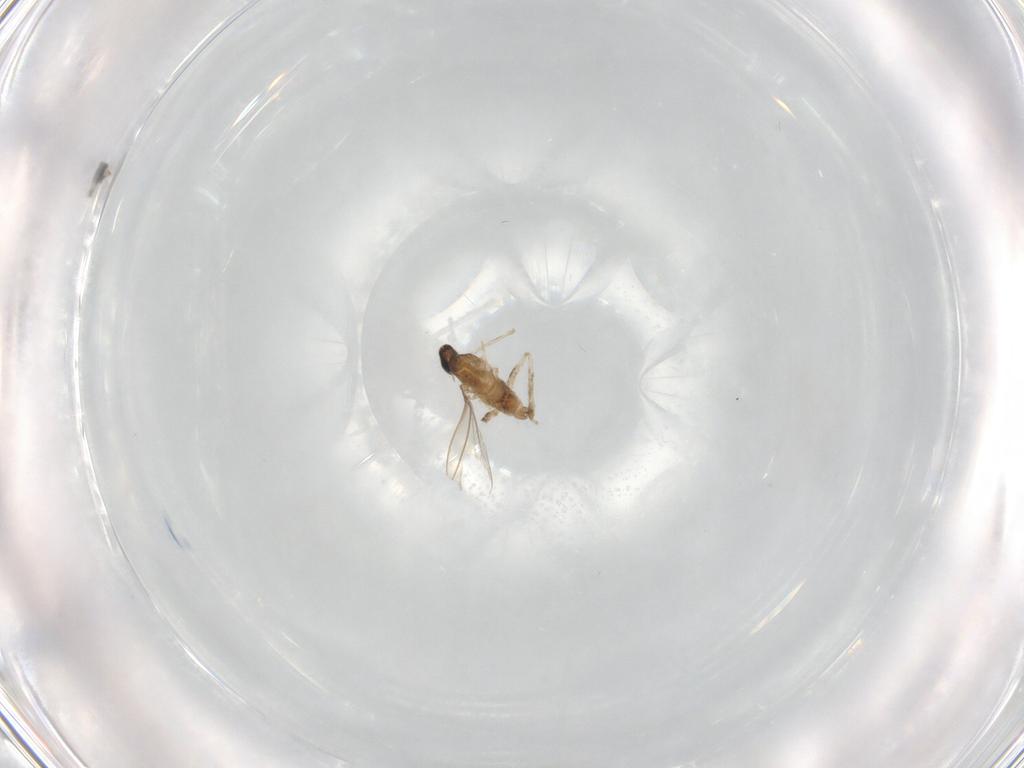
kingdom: Animalia
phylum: Arthropoda
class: Insecta
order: Diptera
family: Cecidomyiidae
